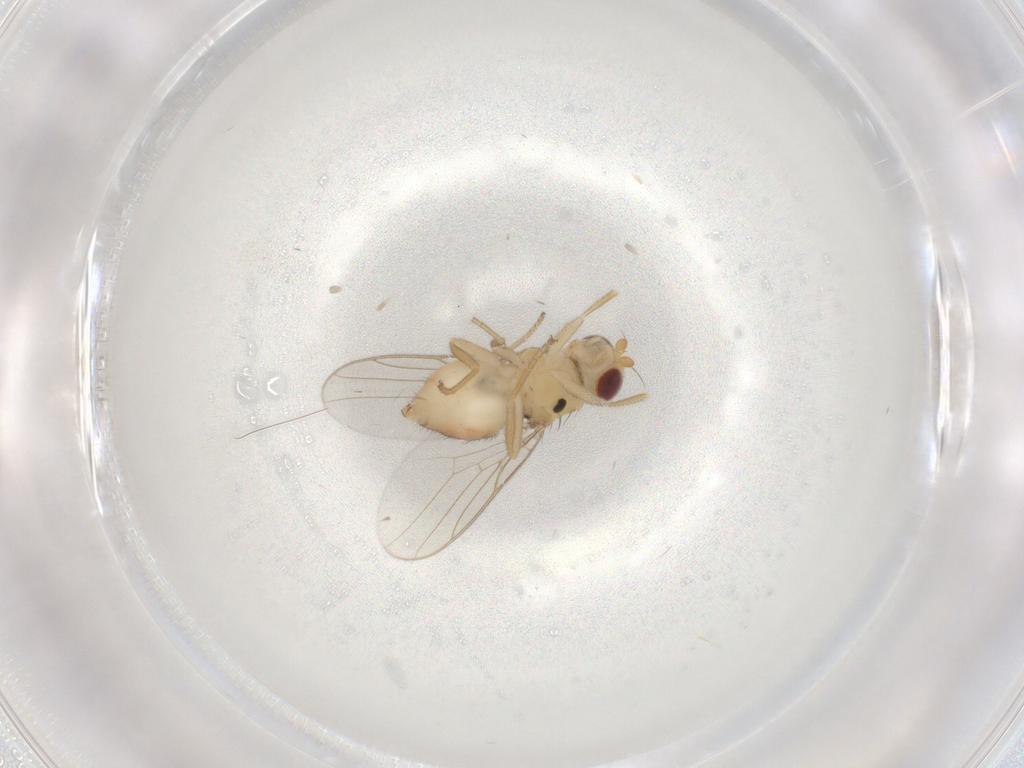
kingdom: Animalia
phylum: Arthropoda
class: Insecta
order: Diptera
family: Chloropidae
